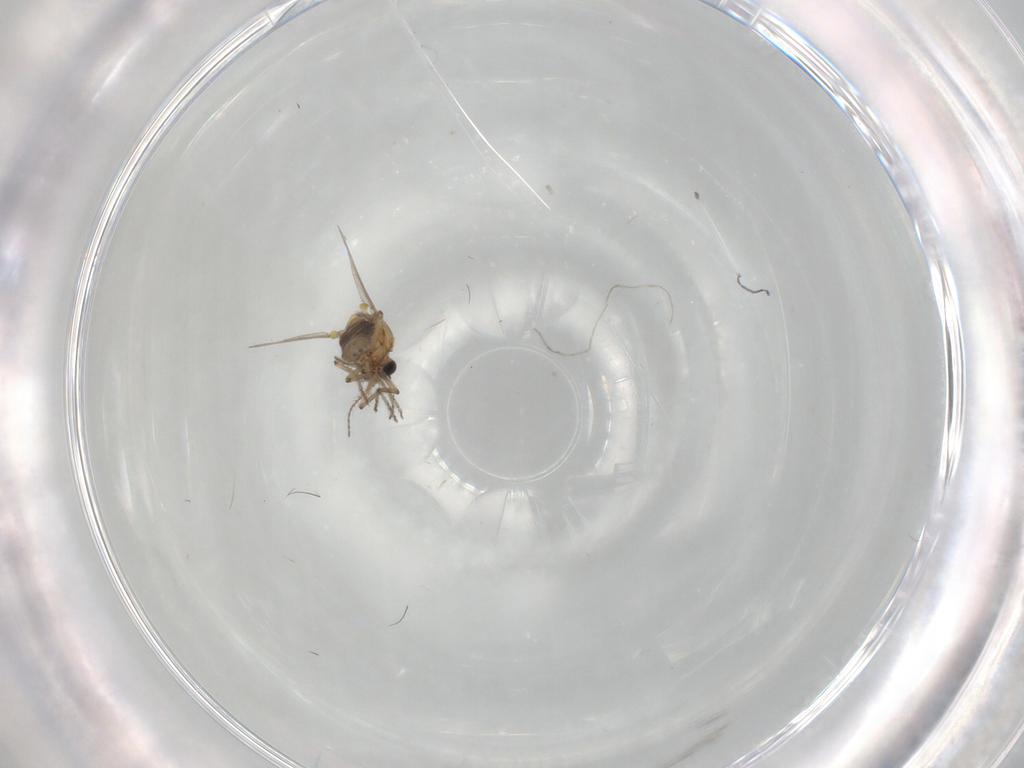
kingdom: Animalia
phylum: Arthropoda
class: Insecta
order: Diptera
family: Ceratopogonidae
